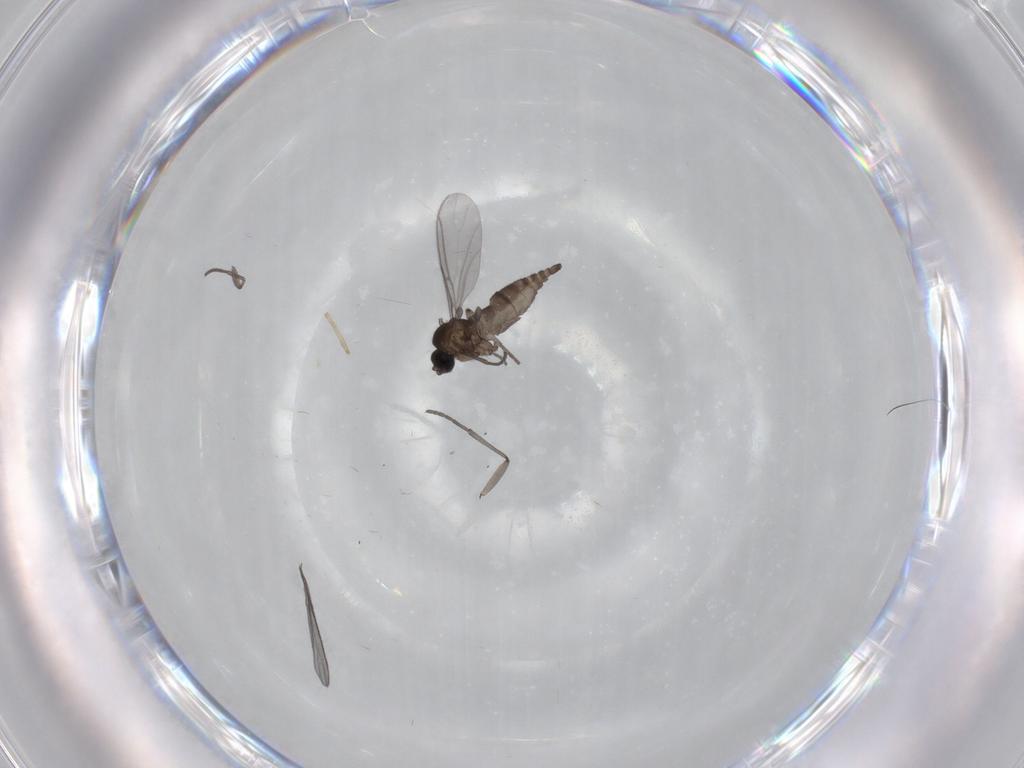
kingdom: Animalia
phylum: Arthropoda
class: Insecta
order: Diptera
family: Sciaridae
